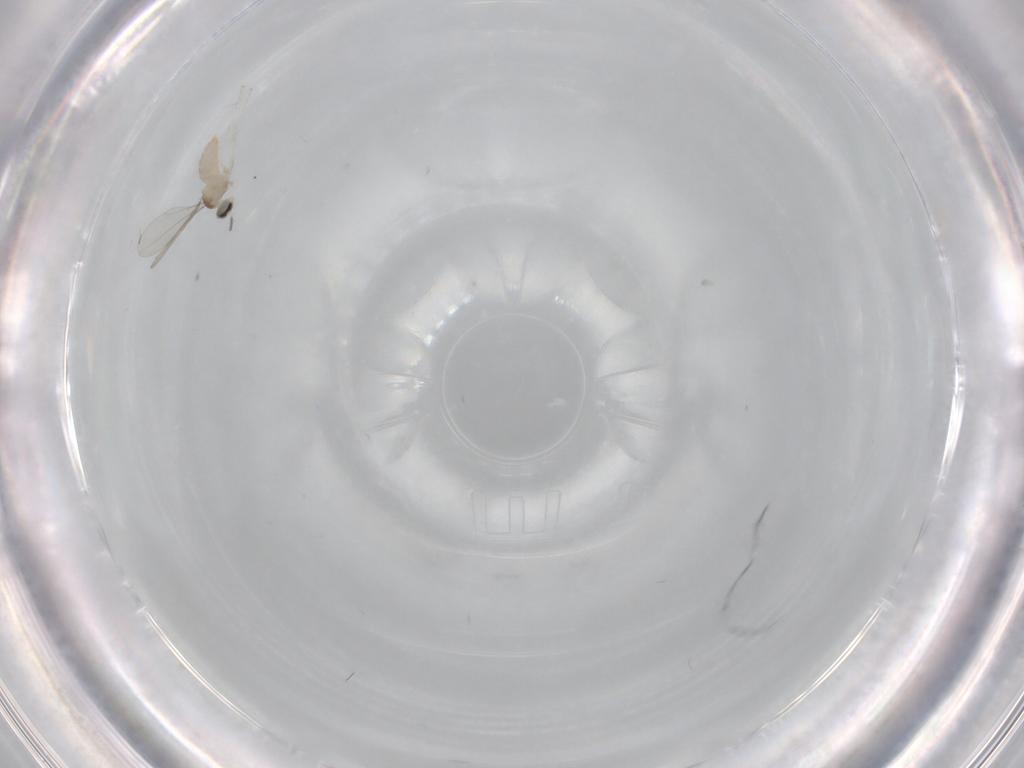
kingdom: Animalia
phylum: Arthropoda
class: Insecta
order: Diptera
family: Cecidomyiidae
